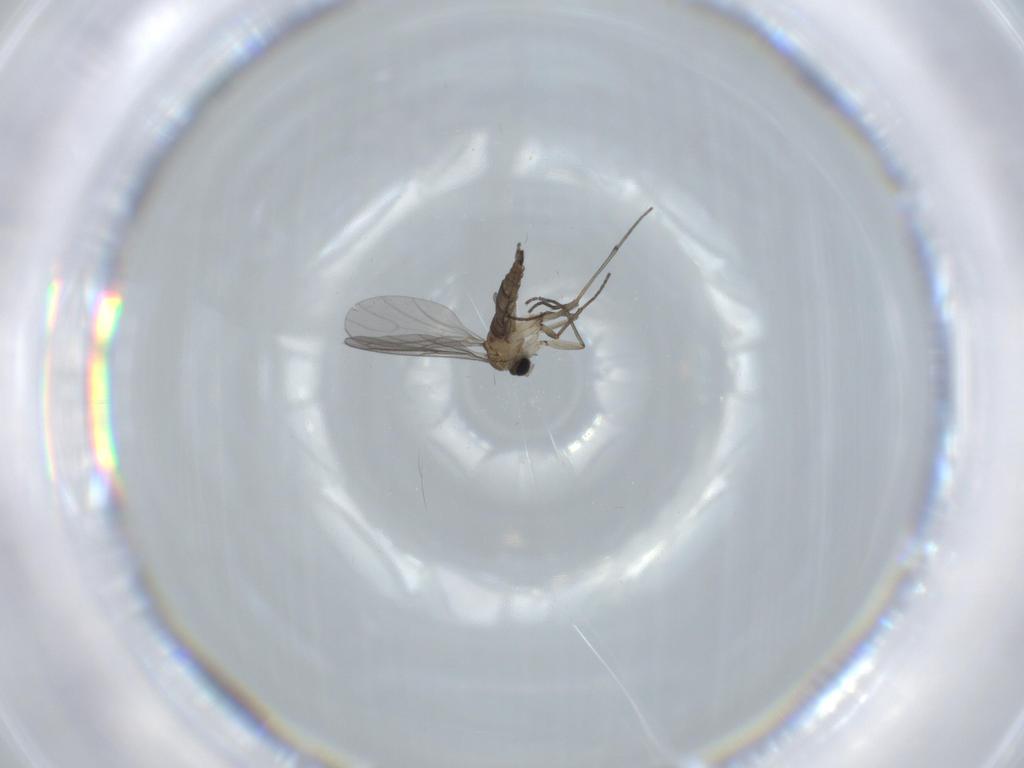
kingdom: Animalia
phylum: Arthropoda
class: Insecta
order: Diptera
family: Sciaridae
